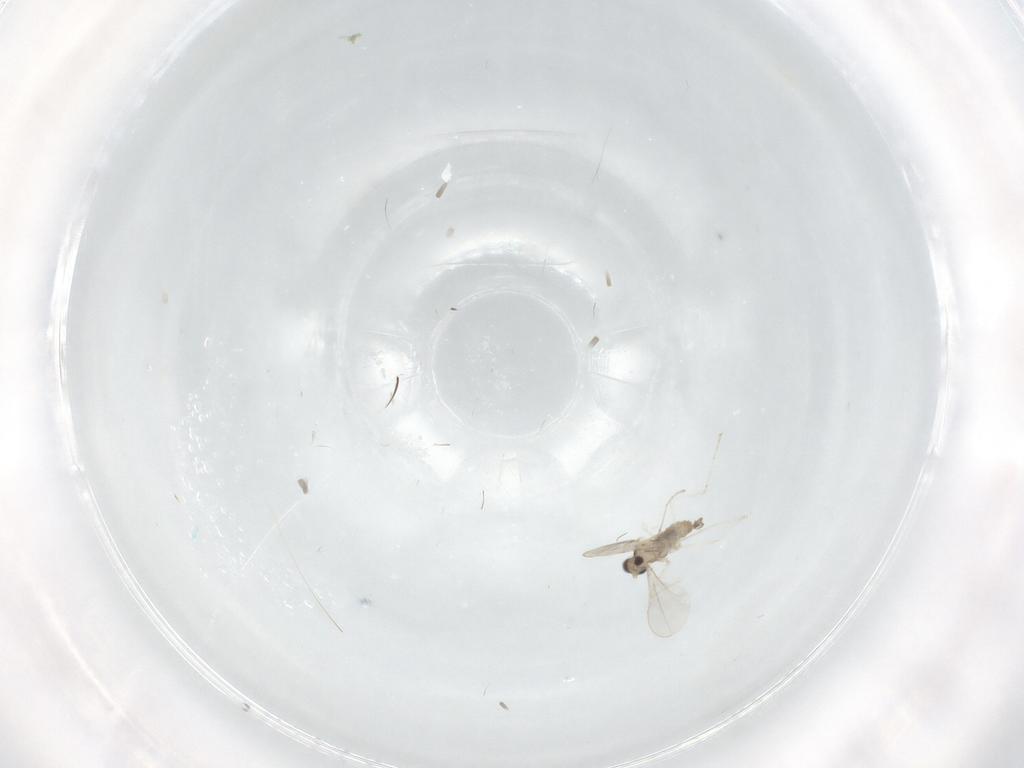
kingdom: Animalia
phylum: Arthropoda
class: Insecta
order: Diptera
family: Cecidomyiidae
